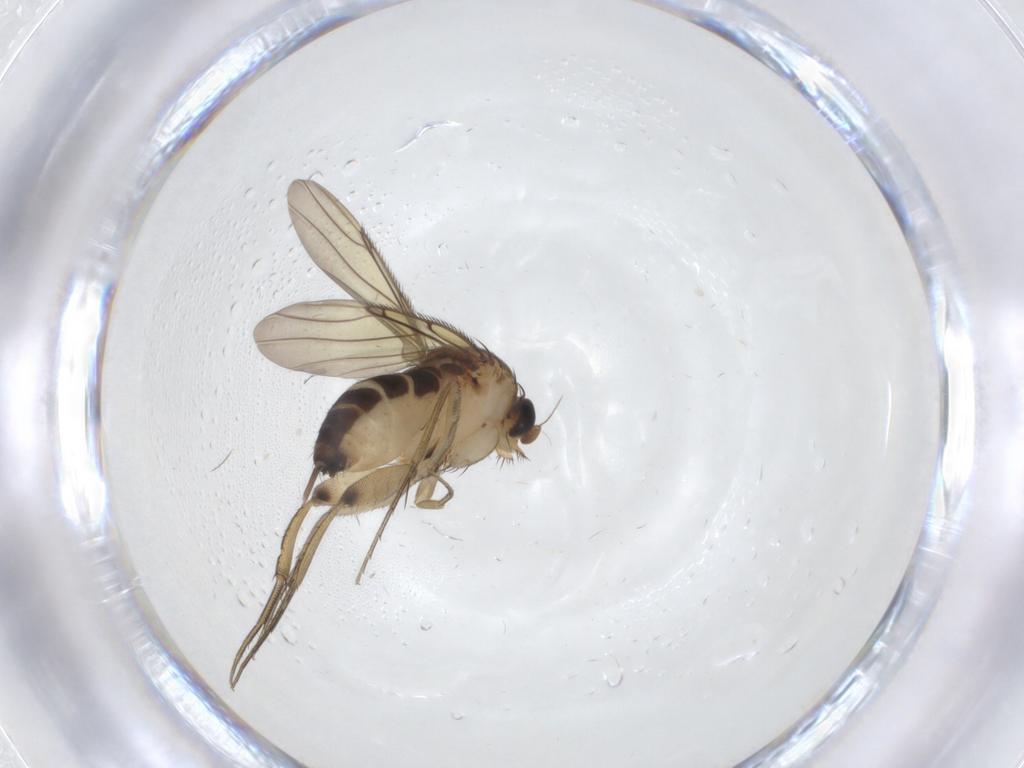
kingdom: Animalia
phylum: Arthropoda
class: Insecta
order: Diptera
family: Phoridae
